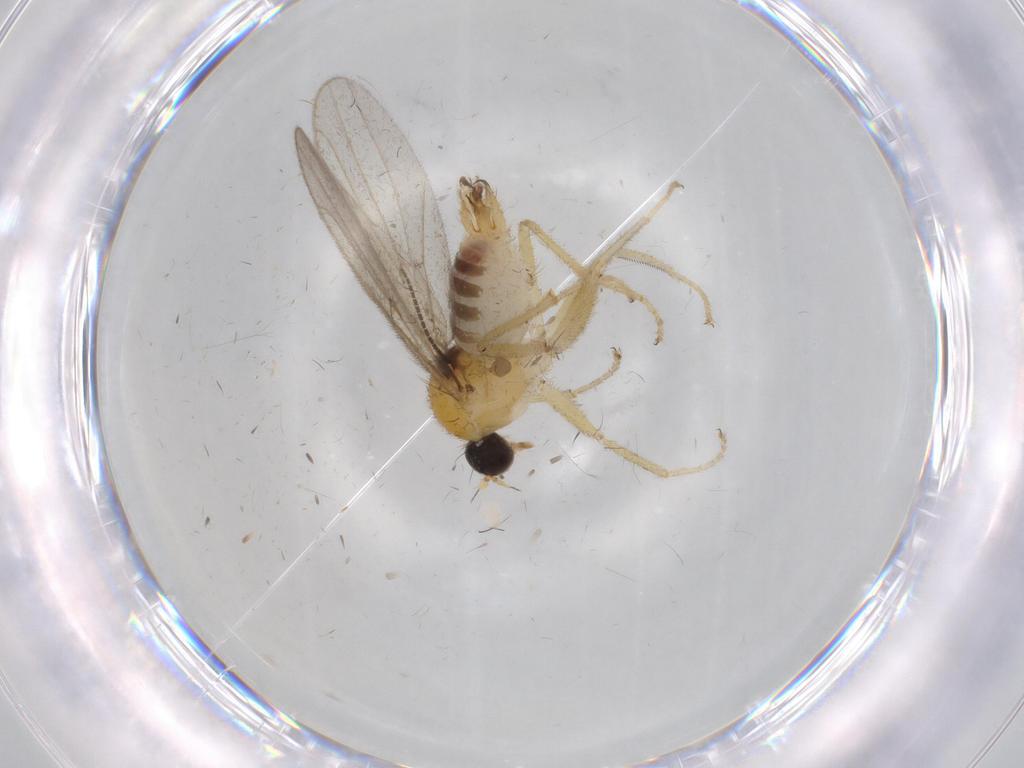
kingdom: Animalia
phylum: Arthropoda
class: Insecta
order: Diptera
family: Hybotidae
